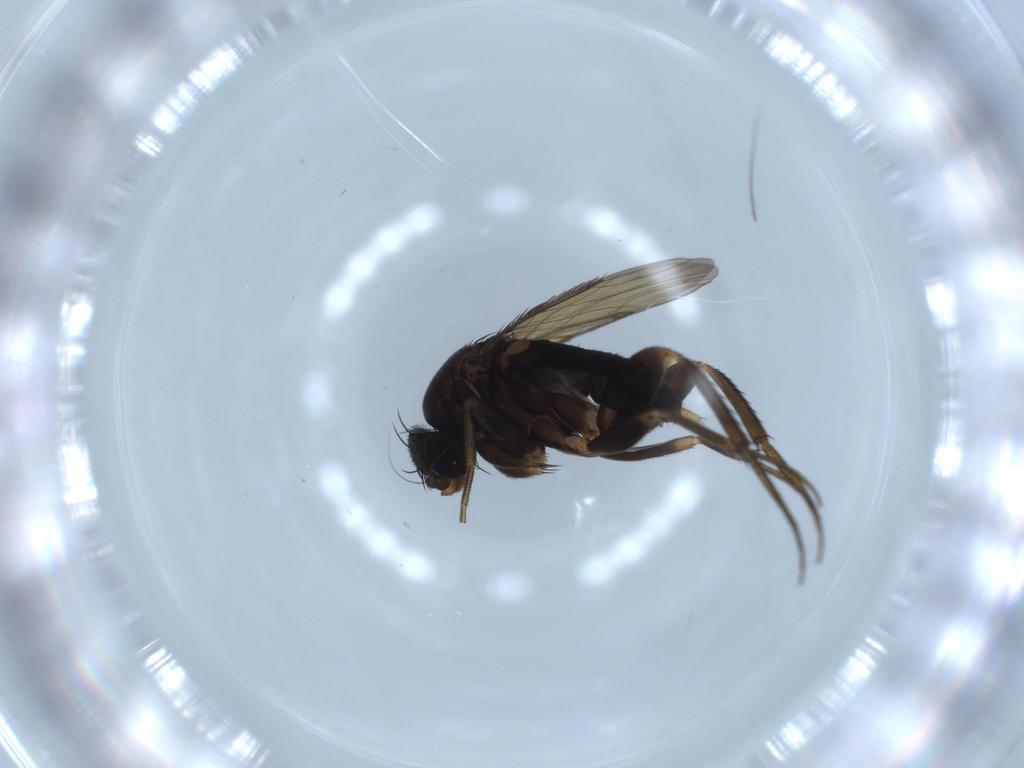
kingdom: Animalia
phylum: Arthropoda
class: Insecta
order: Diptera
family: Phoridae
